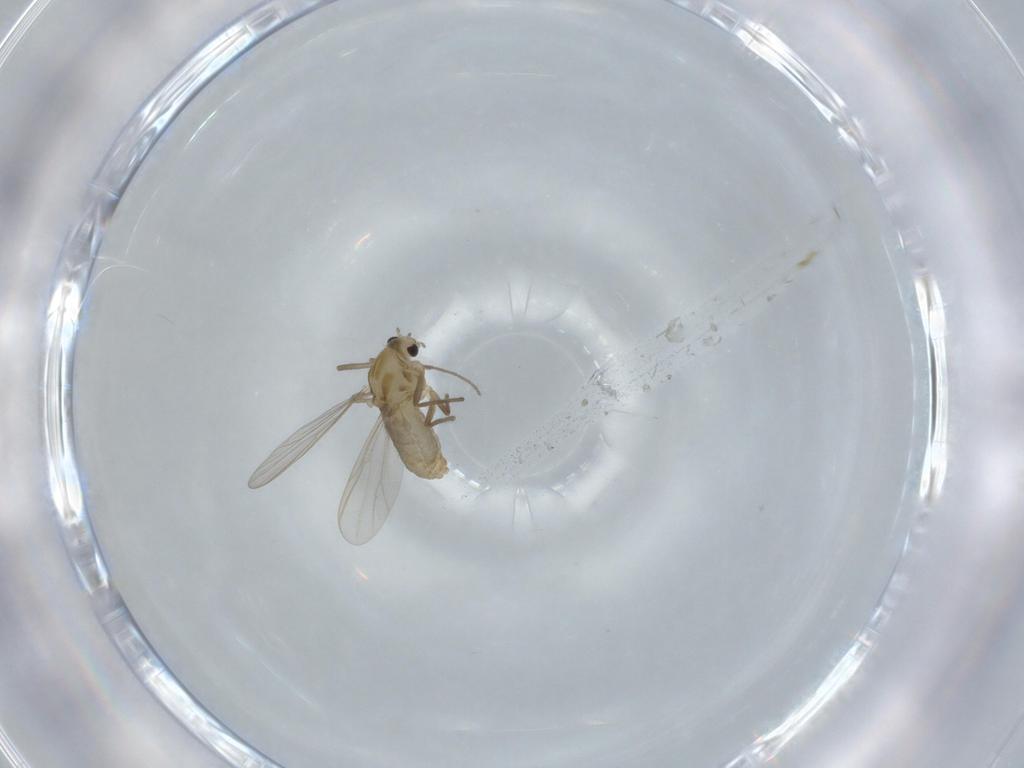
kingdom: Animalia
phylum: Arthropoda
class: Insecta
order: Diptera
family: Chironomidae
